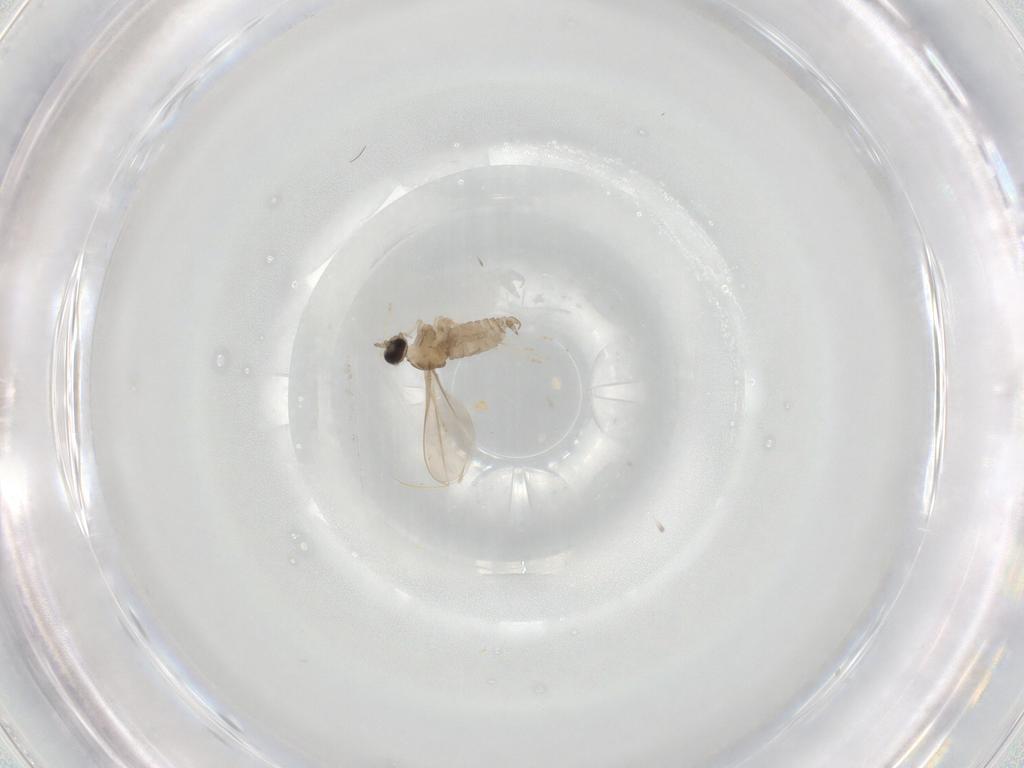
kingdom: Animalia
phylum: Arthropoda
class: Insecta
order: Diptera
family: Cecidomyiidae
